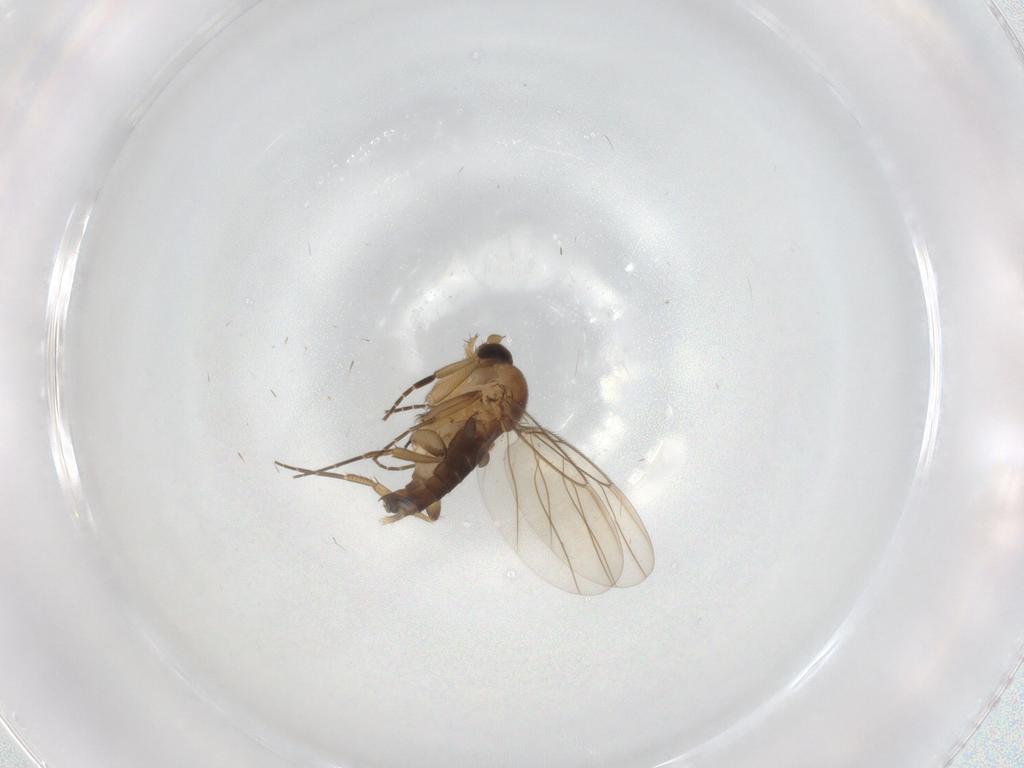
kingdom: Animalia
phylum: Arthropoda
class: Insecta
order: Diptera
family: Phoridae
